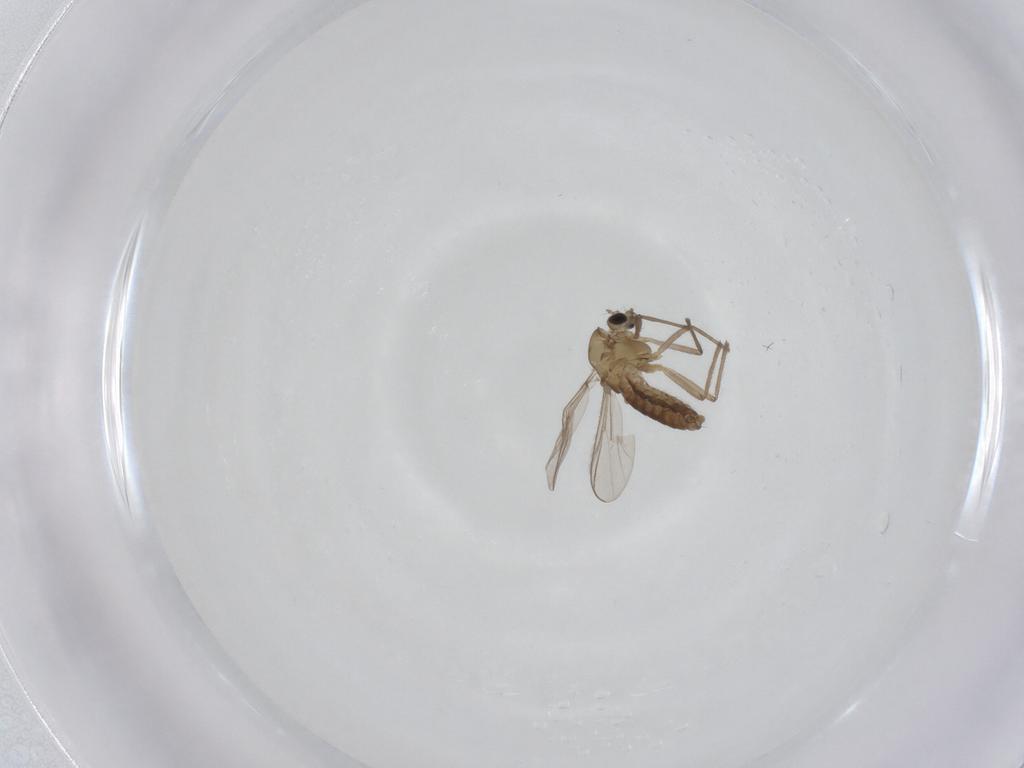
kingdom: Animalia
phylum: Arthropoda
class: Insecta
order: Diptera
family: Chironomidae
